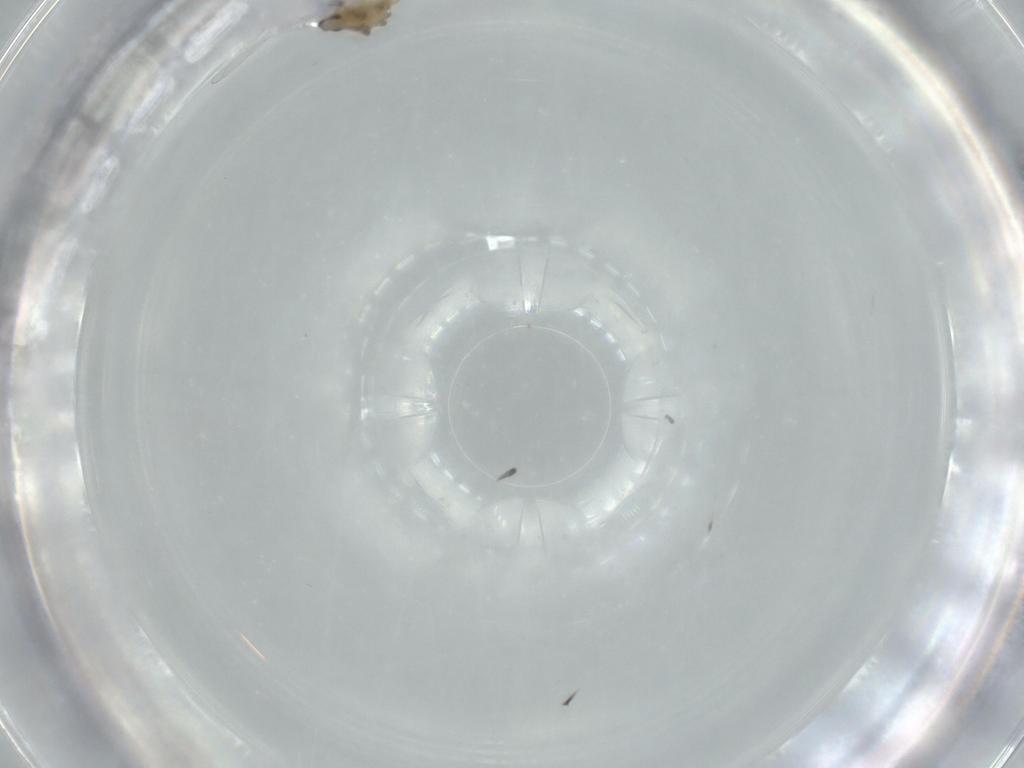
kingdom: Animalia
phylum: Arthropoda
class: Insecta
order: Diptera
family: Cecidomyiidae
